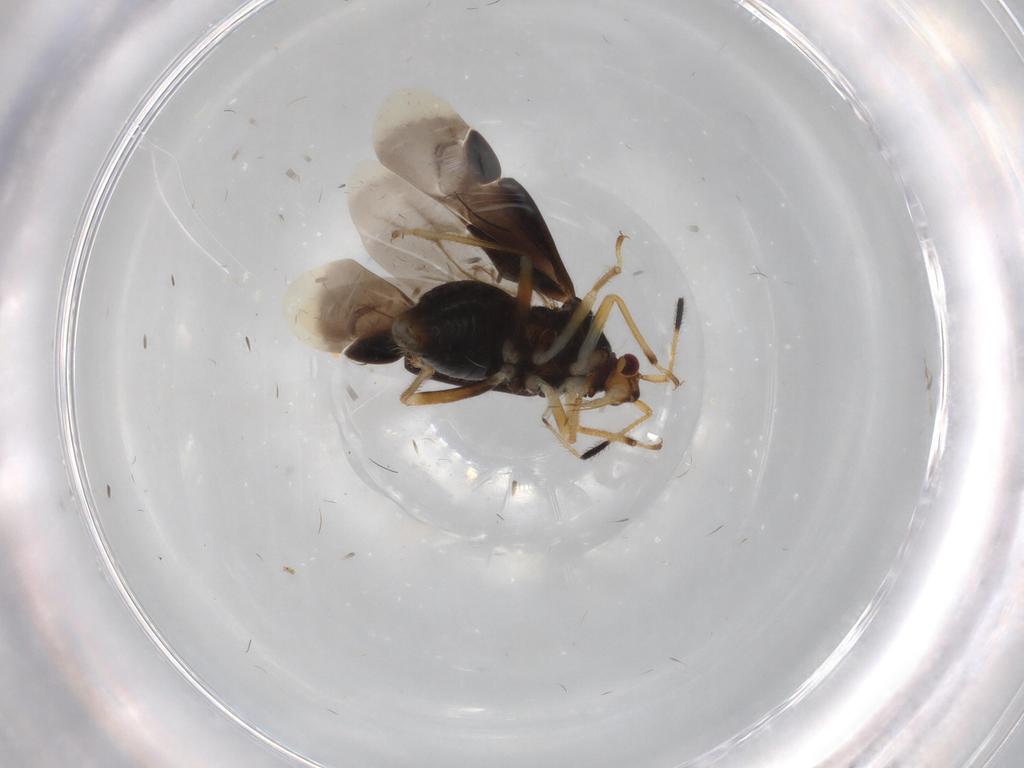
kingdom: Animalia
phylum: Arthropoda
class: Insecta
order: Hemiptera
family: Miridae
